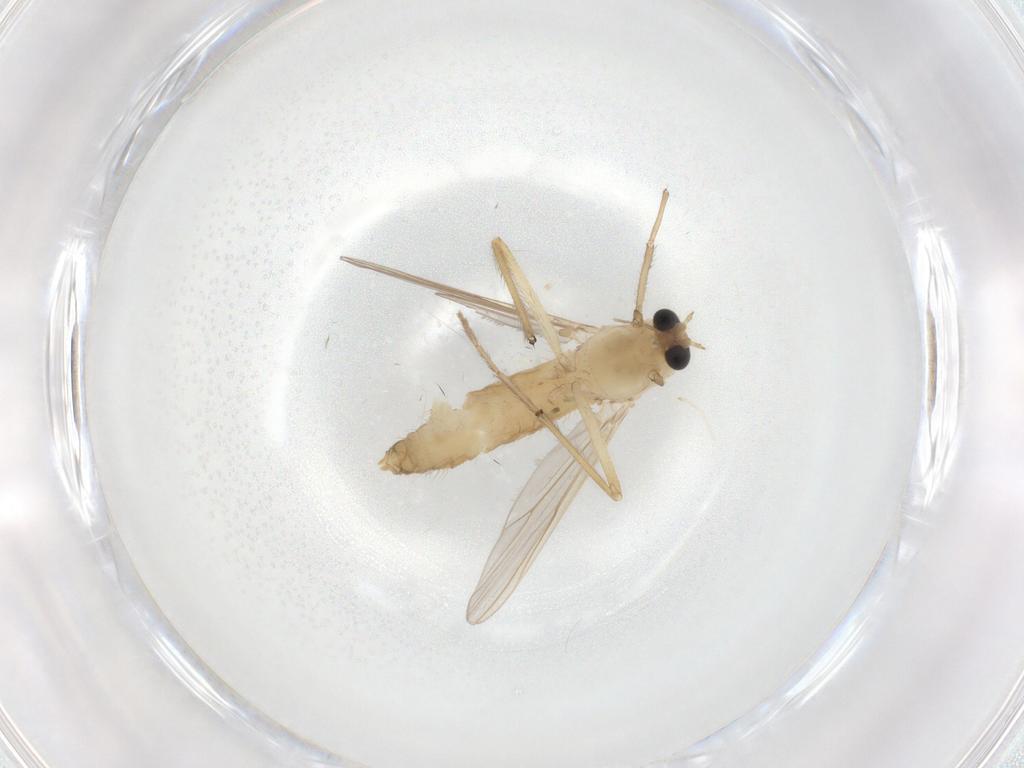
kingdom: Animalia
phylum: Arthropoda
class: Insecta
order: Diptera
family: Chironomidae
